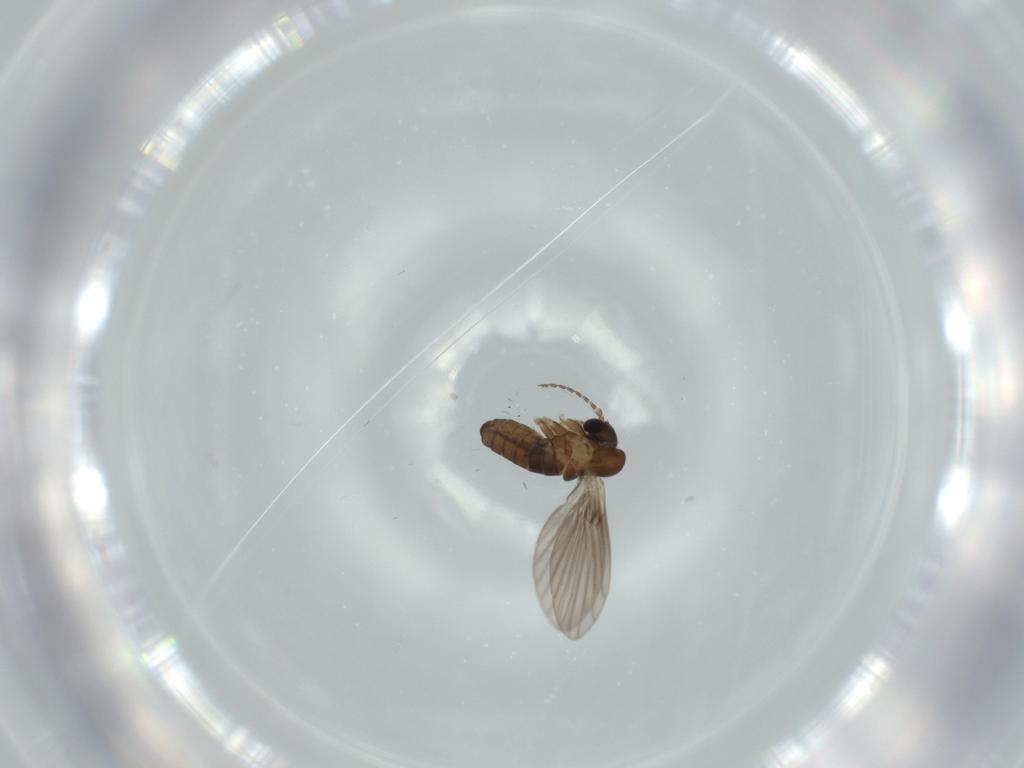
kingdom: Animalia
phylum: Arthropoda
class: Insecta
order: Diptera
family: Psychodidae
